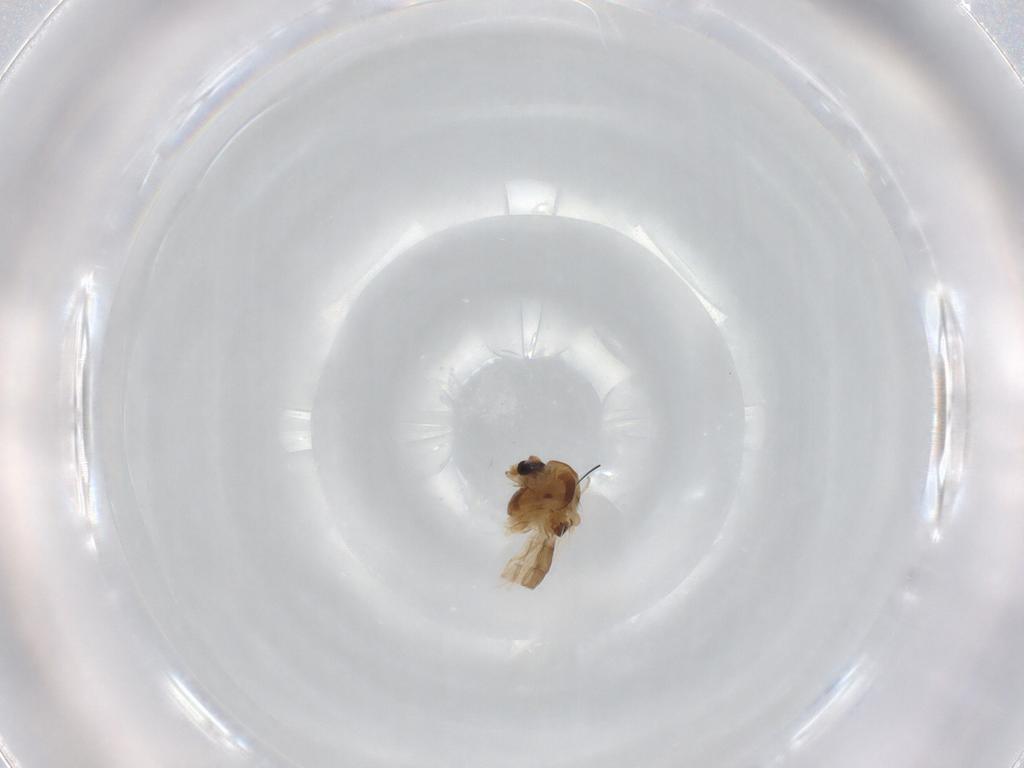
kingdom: Animalia
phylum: Arthropoda
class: Insecta
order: Diptera
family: Chironomidae
